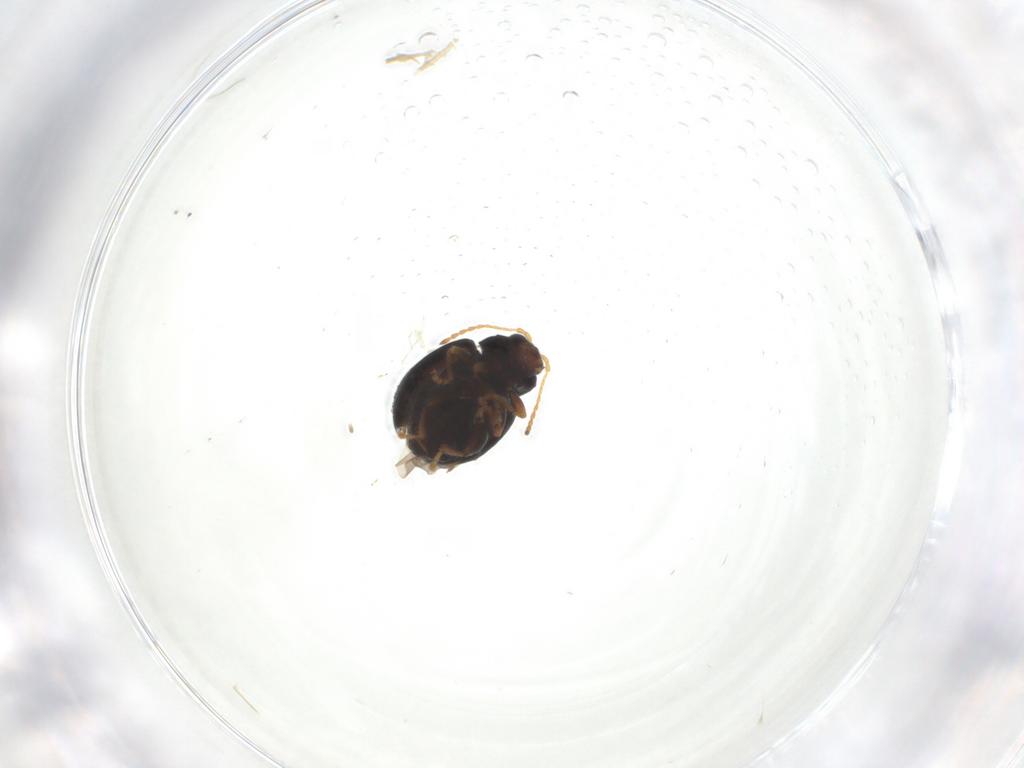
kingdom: Animalia
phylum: Arthropoda
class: Insecta
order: Coleoptera
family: Chrysomelidae
